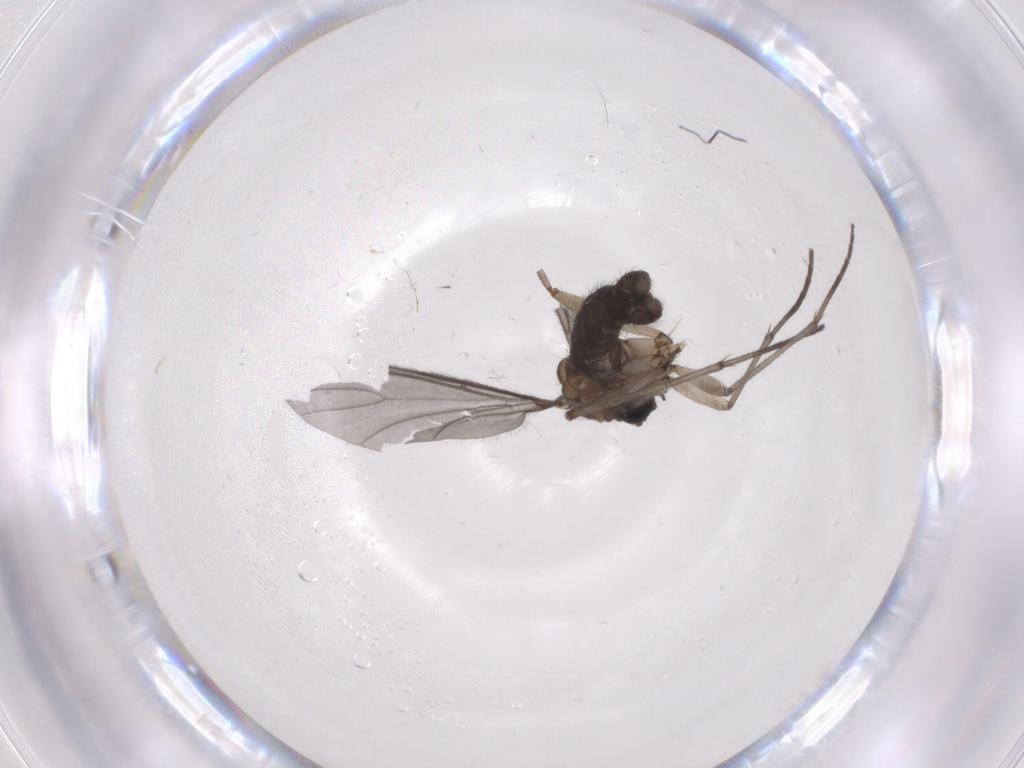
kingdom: Animalia
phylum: Arthropoda
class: Insecta
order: Diptera
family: Sciaridae
